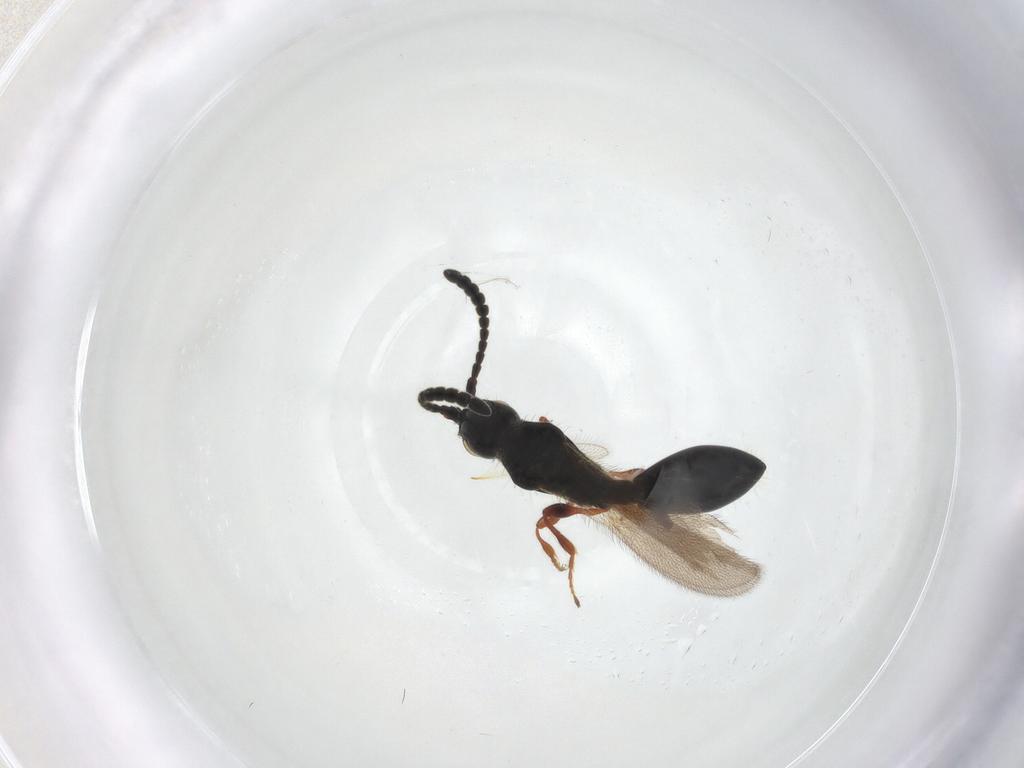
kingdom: Animalia
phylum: Arthropoda
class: Insecta
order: Hymenoptera
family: Diapriidae
